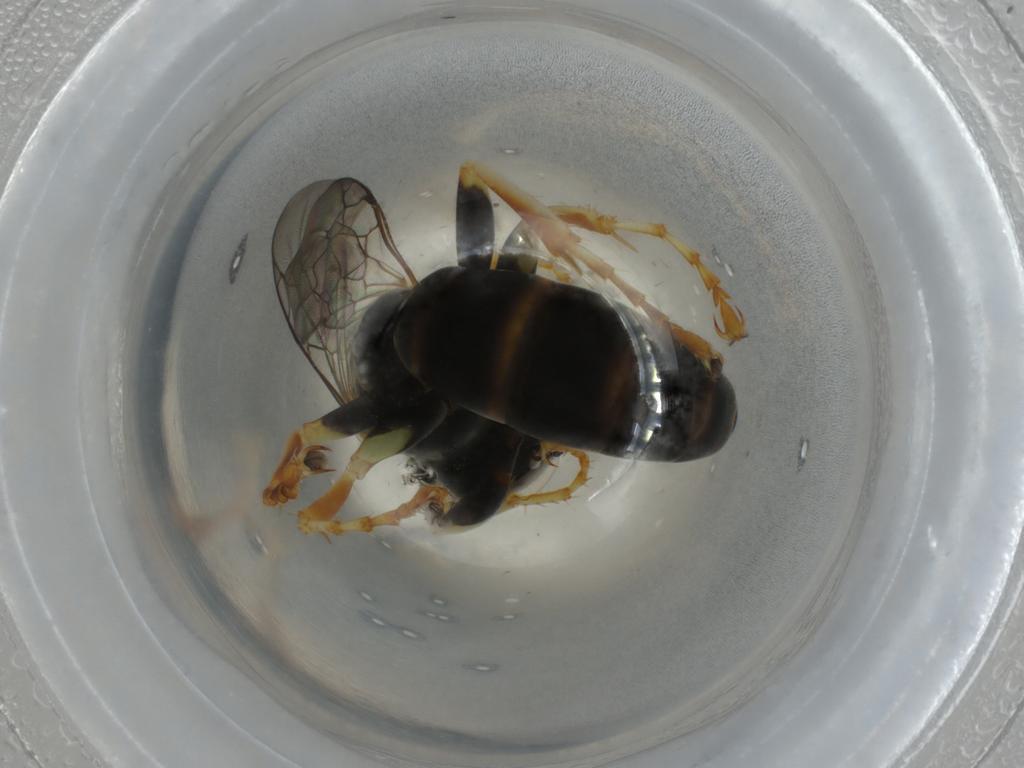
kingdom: Animalia
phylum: Arthropoda
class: Insecta
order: Hymenoptera
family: Crabronidae
